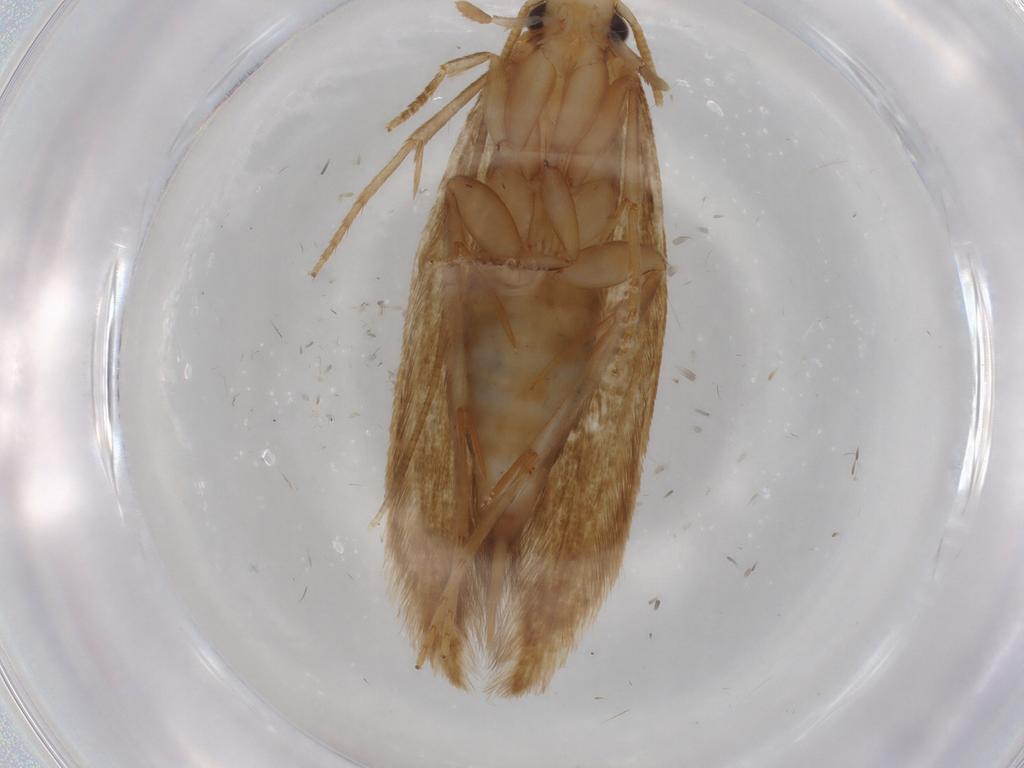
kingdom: Animalia
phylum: Arthropoda
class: Insecta
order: Lepidoptera
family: Tineidae
